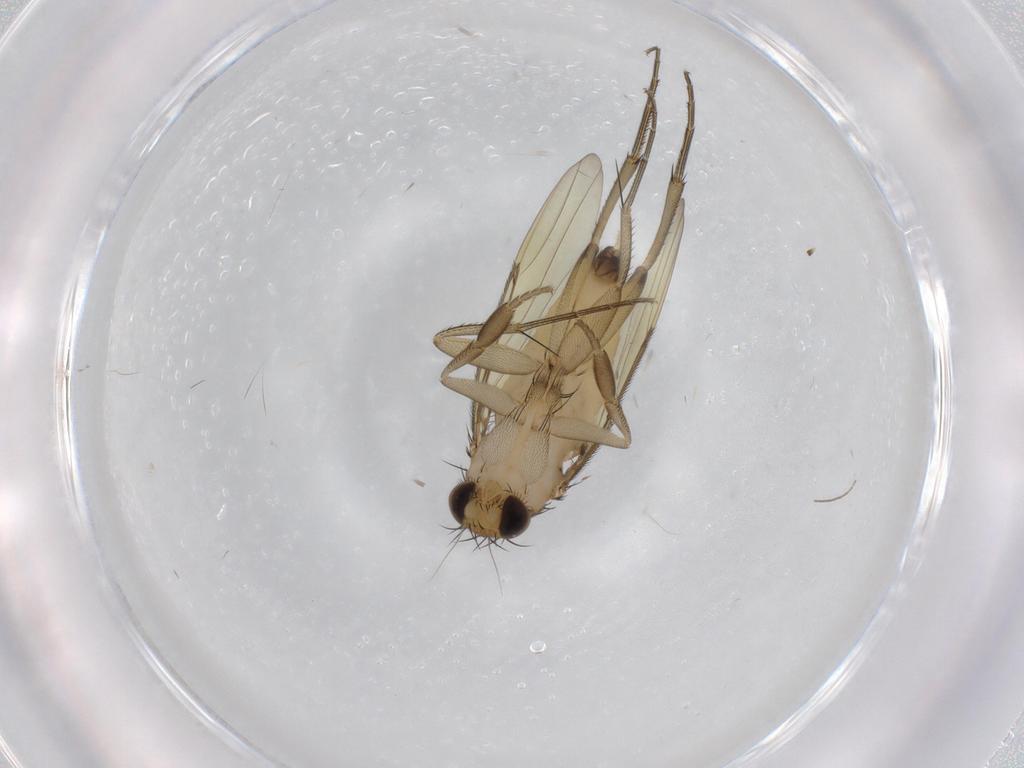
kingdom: Animalia
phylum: Arthropoda
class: Insecta
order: Diptera
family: Phoridae
